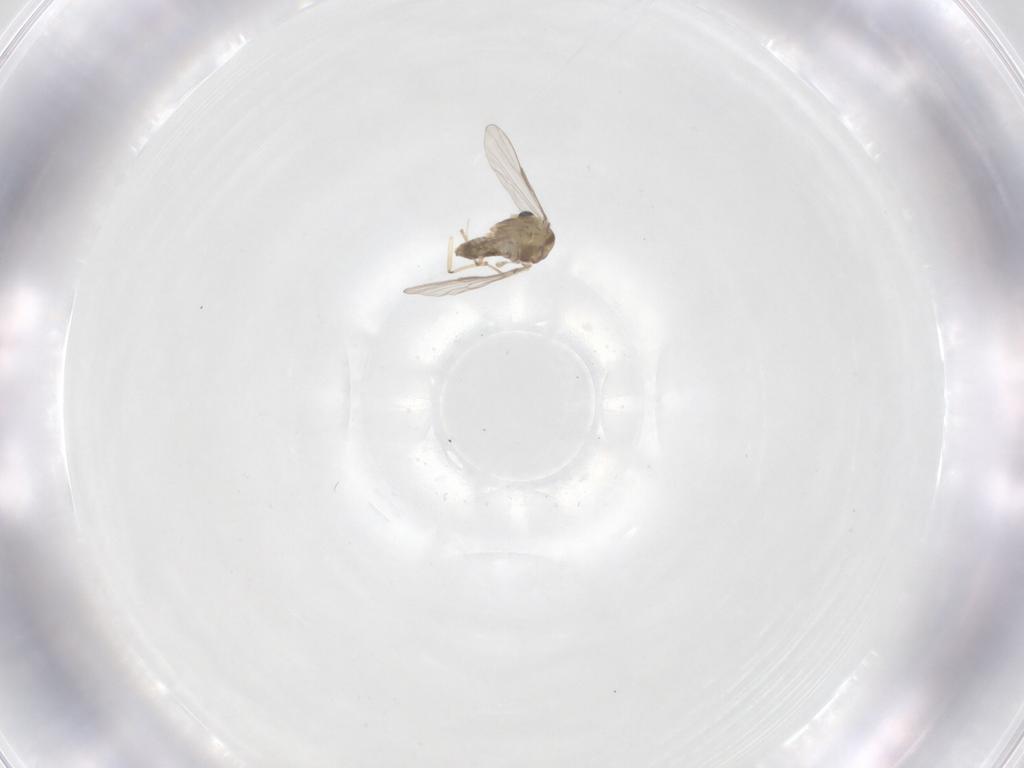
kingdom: Animalia
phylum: Arthropoda
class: Insecta
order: Diptera
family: Chironomidae
